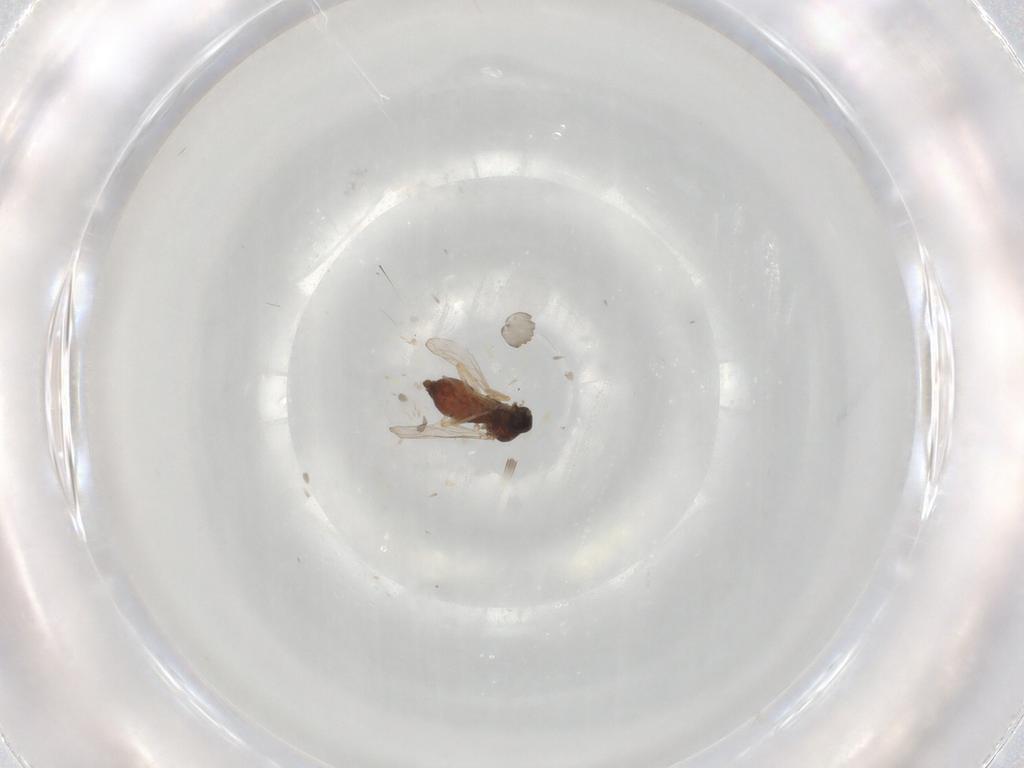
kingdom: Animalia
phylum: Arthropoda
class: Insecta
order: Diptera
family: Ceratopogonidae
